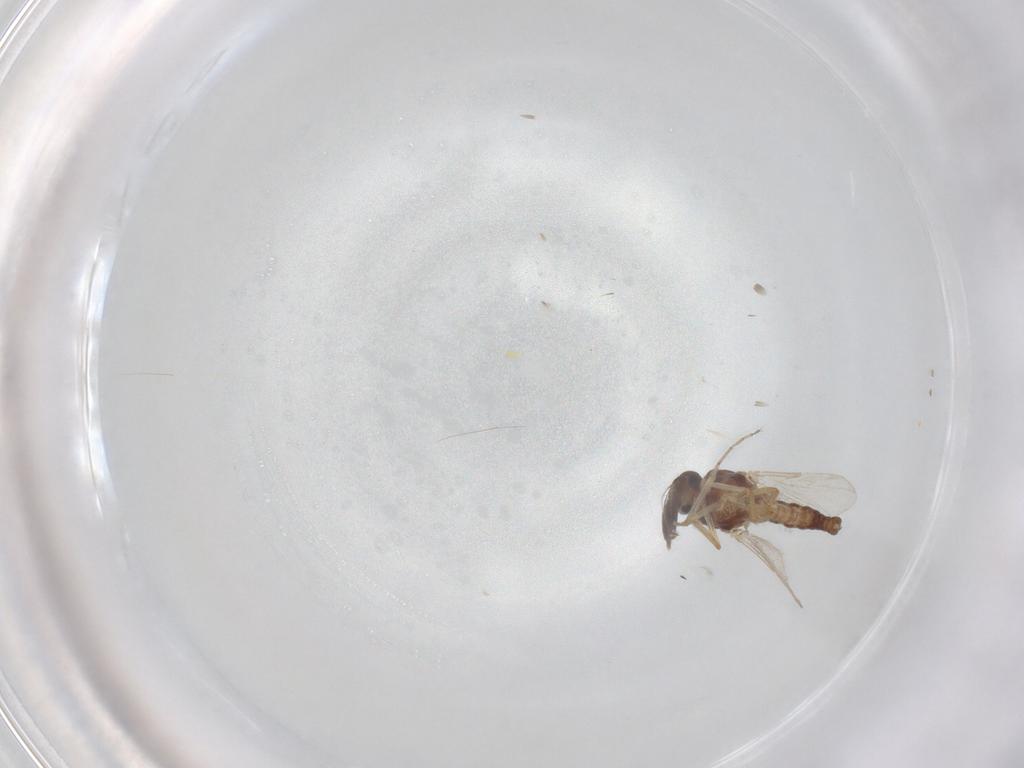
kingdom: Animalia
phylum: Arthropoda
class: Insecta
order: Diptera
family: Ceratopogonidae
